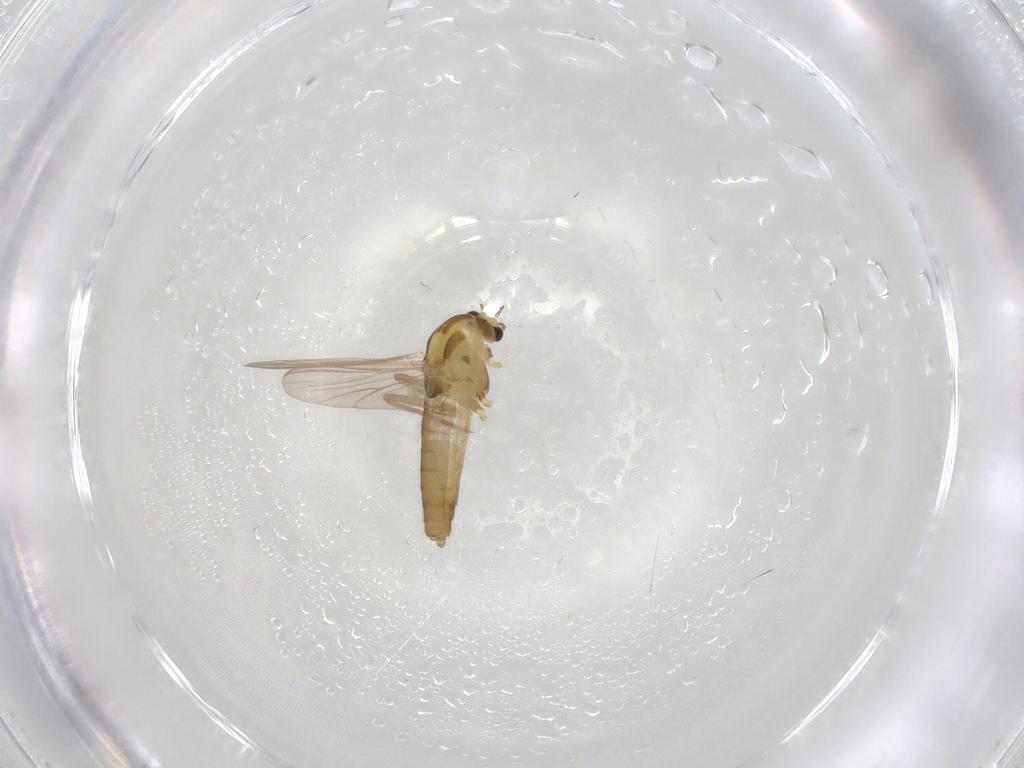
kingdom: Animalia
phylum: Arthropoda
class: Insecta
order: Diptera
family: Chironomidae
